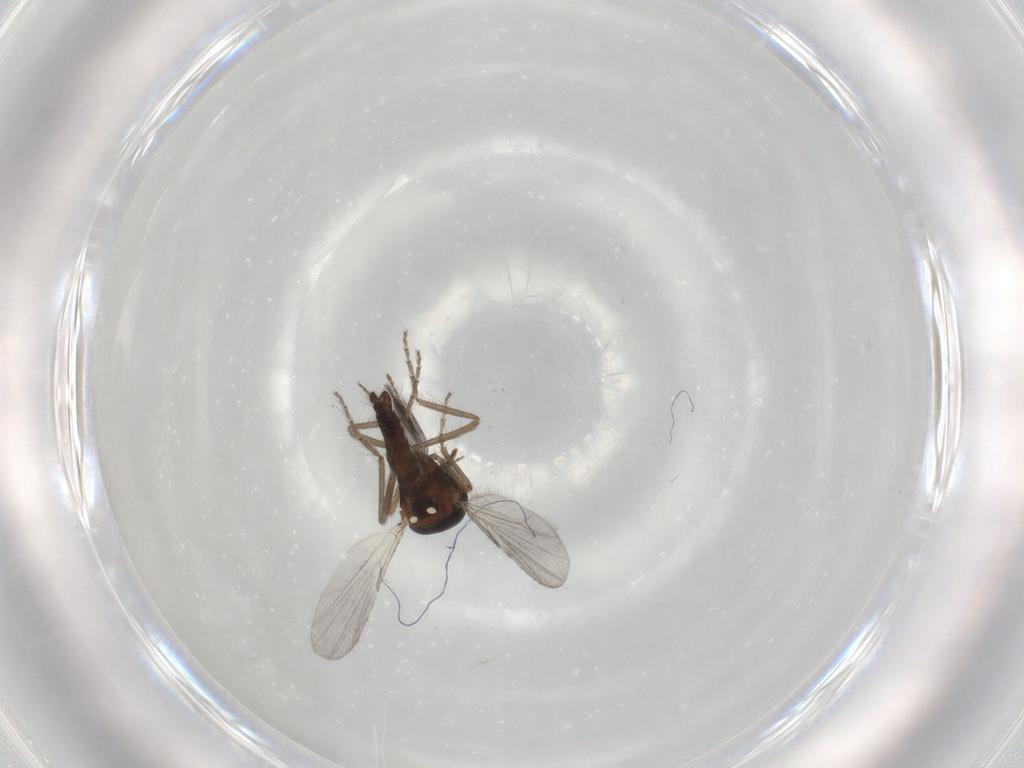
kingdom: Animalia
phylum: Arthropoda
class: Insecta
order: Diptera
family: Ceratopogonidae
